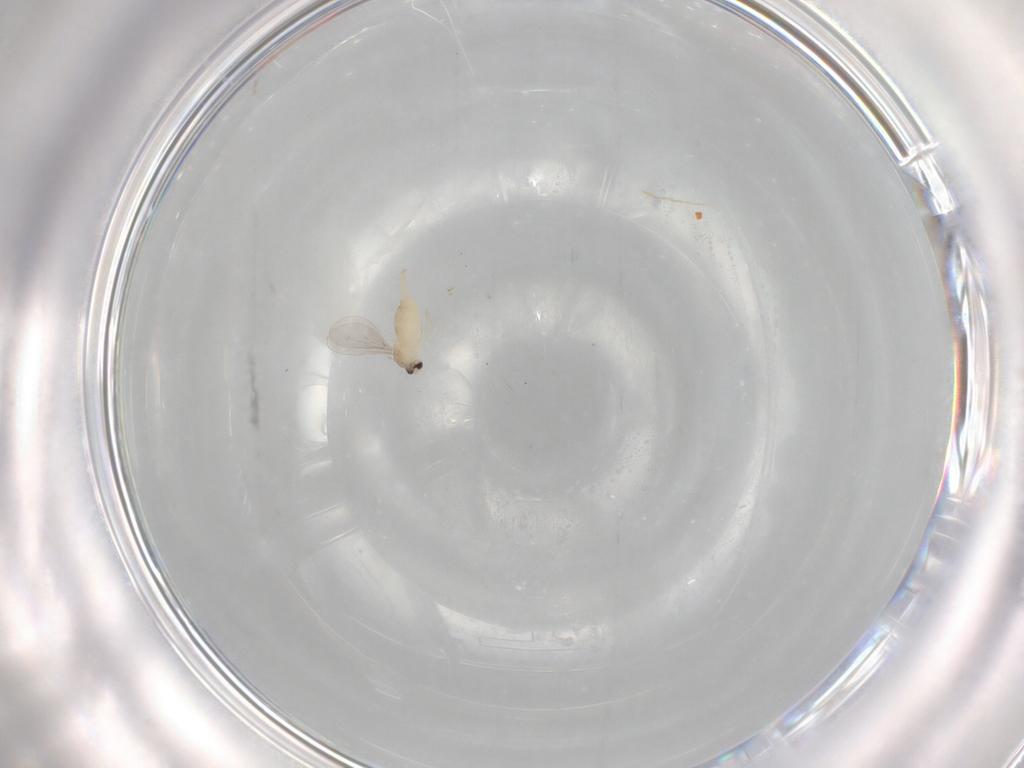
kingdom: Animalia
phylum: Arthropoda
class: Insecta
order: Diptera
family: Cecidomyiidae
